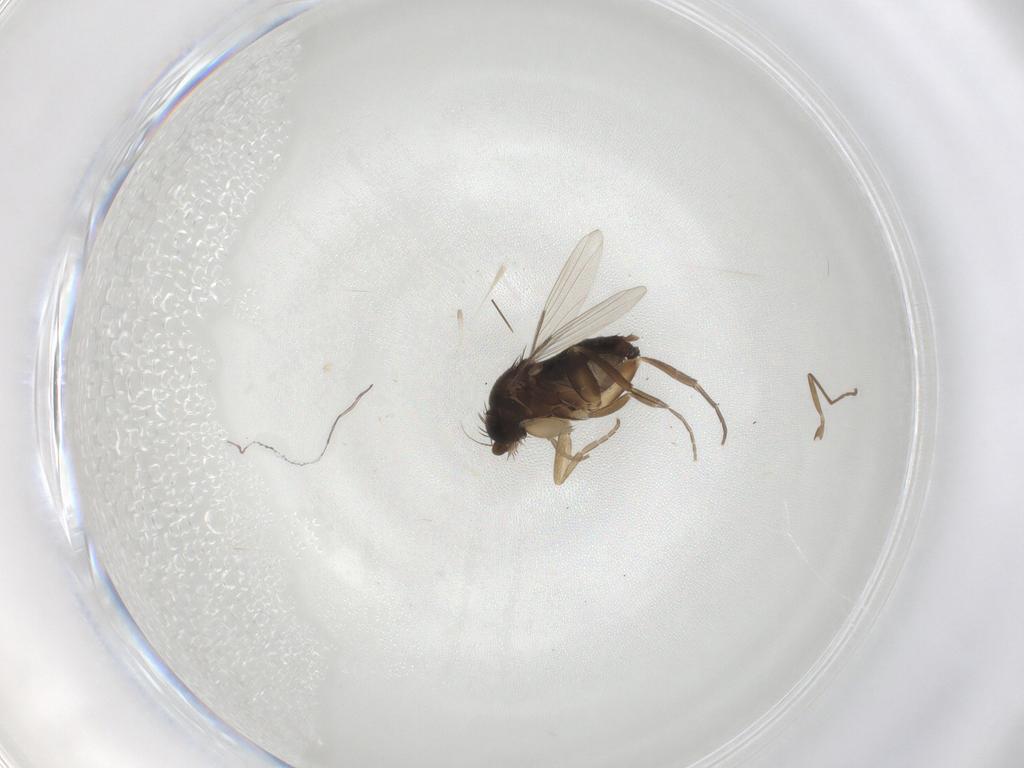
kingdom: Animalia
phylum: Arthropoda
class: Insecta
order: Diptera
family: Phoridae
